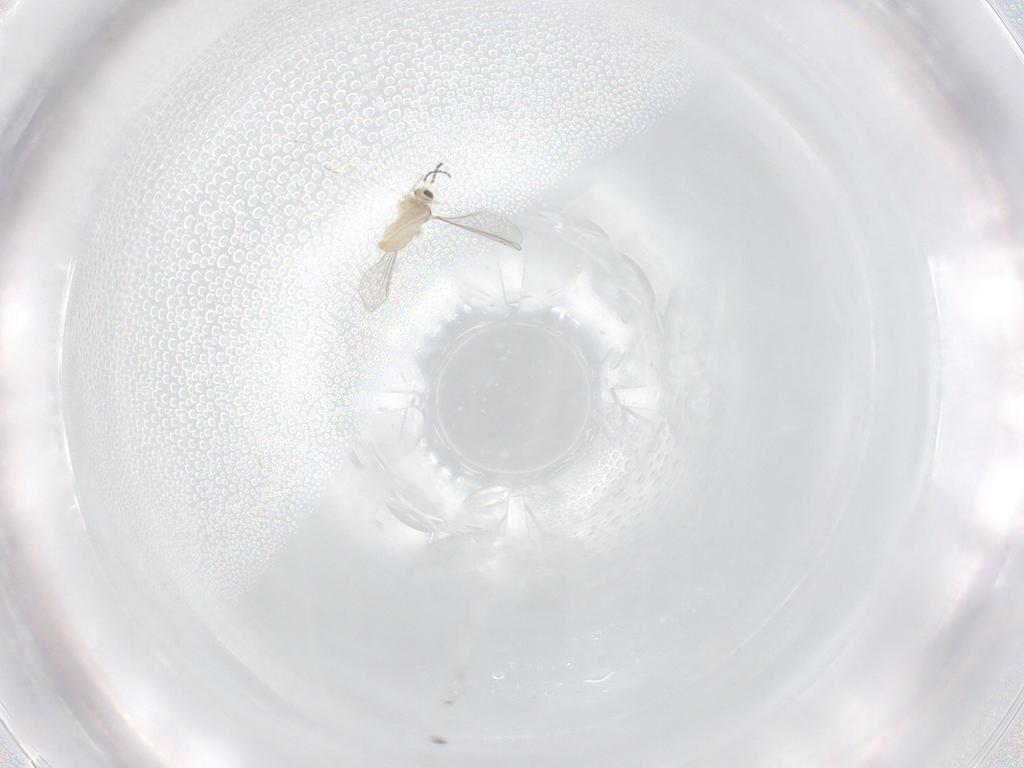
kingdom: Animalia
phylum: Arthropoda
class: Insecta
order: Diptera
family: Cecidomyiidae
